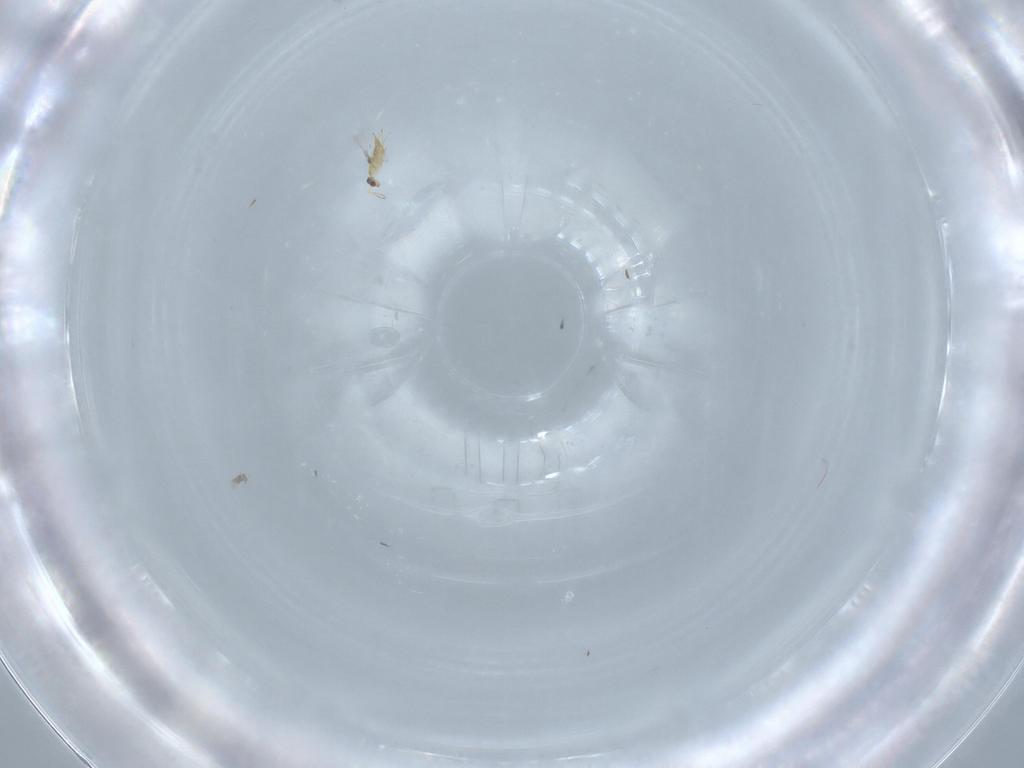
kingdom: Animalia
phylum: Arthropoda
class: Insecta
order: Hymenoptera
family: Mymaridae
